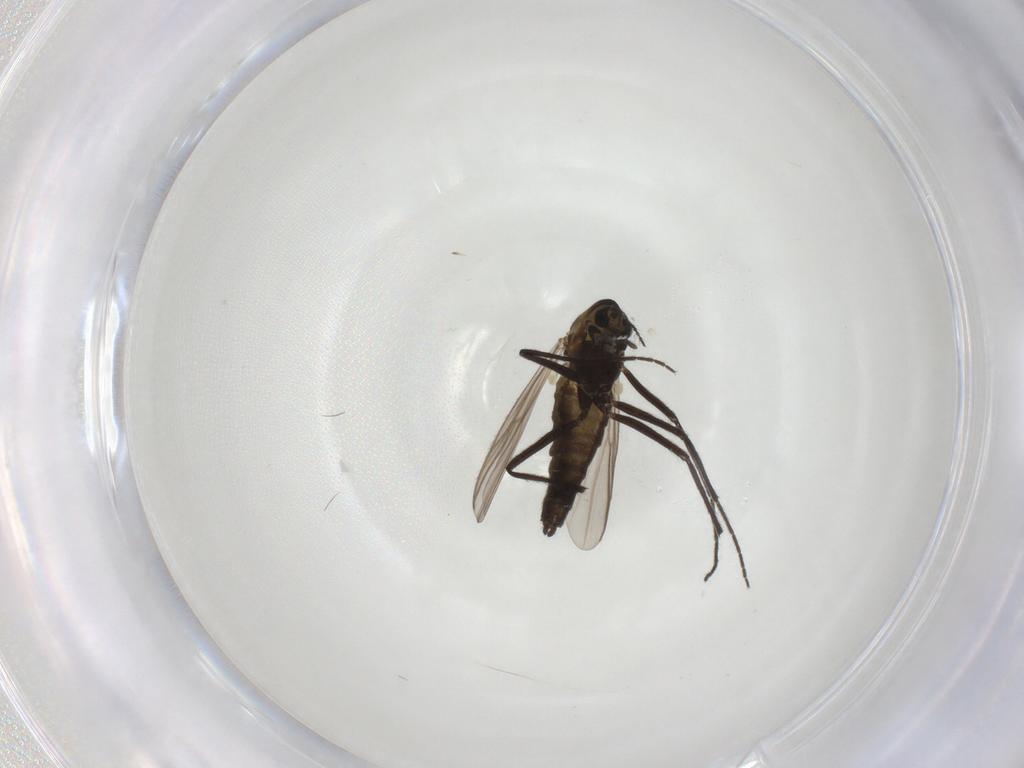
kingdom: Animalia
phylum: Arthropoda
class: Insecta
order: Diptera
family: Chironomidae
